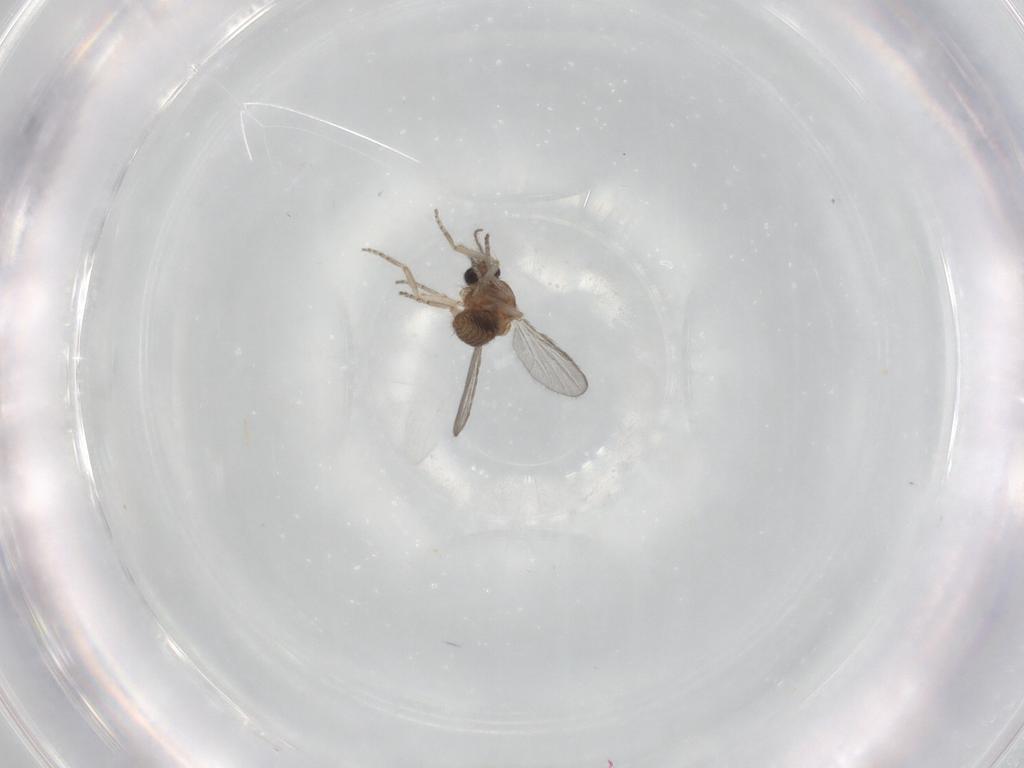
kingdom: Animalia
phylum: Arthropoda
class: Insecta
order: Diptera
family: Ceratopogonidae
